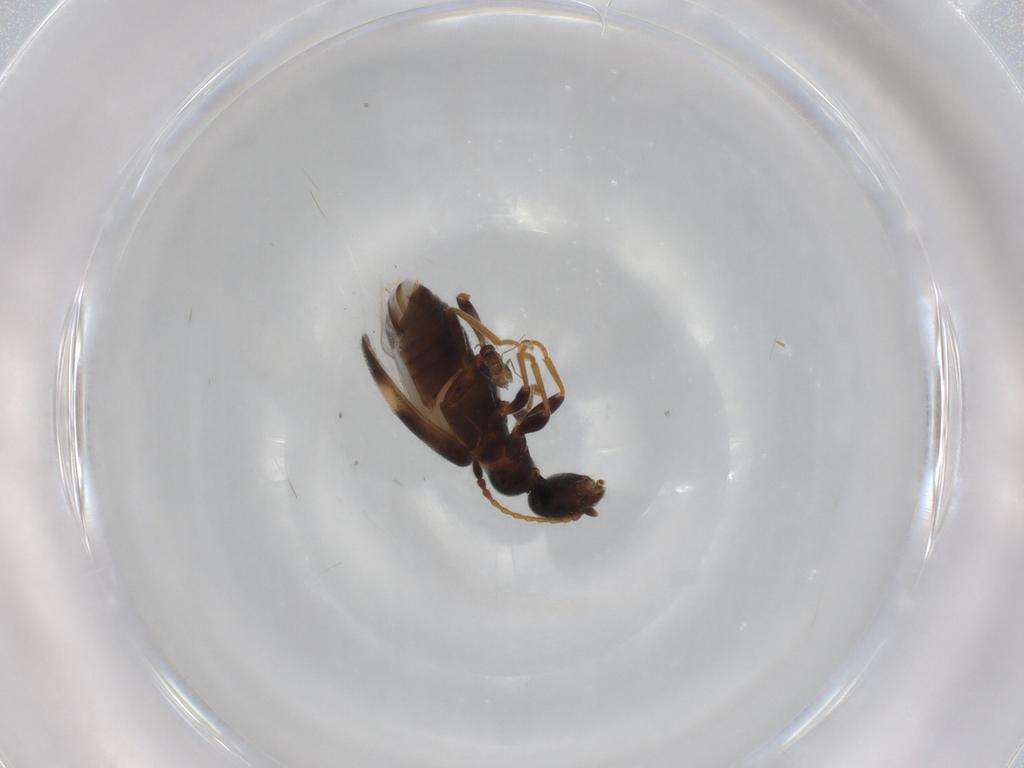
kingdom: Animalia
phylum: Arthropoda
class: Insecta
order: Coleoptera
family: Anthicidae
